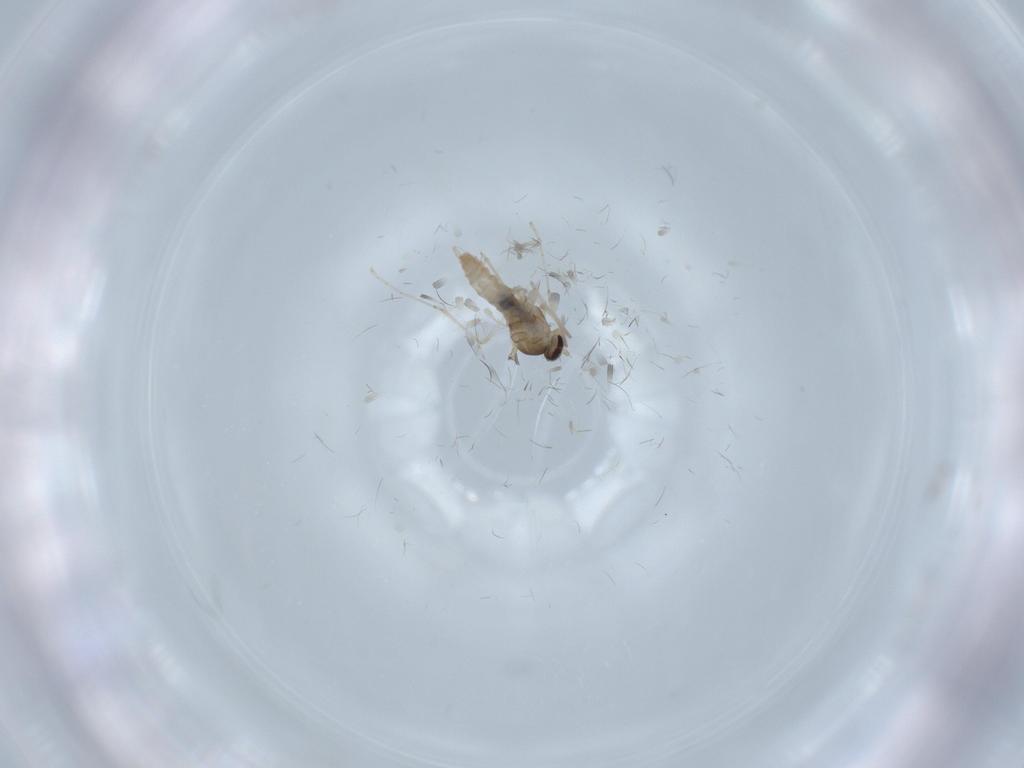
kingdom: Animalia
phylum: Arthropoda
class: Insecta
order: Diptera
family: Cecidomyiidae
